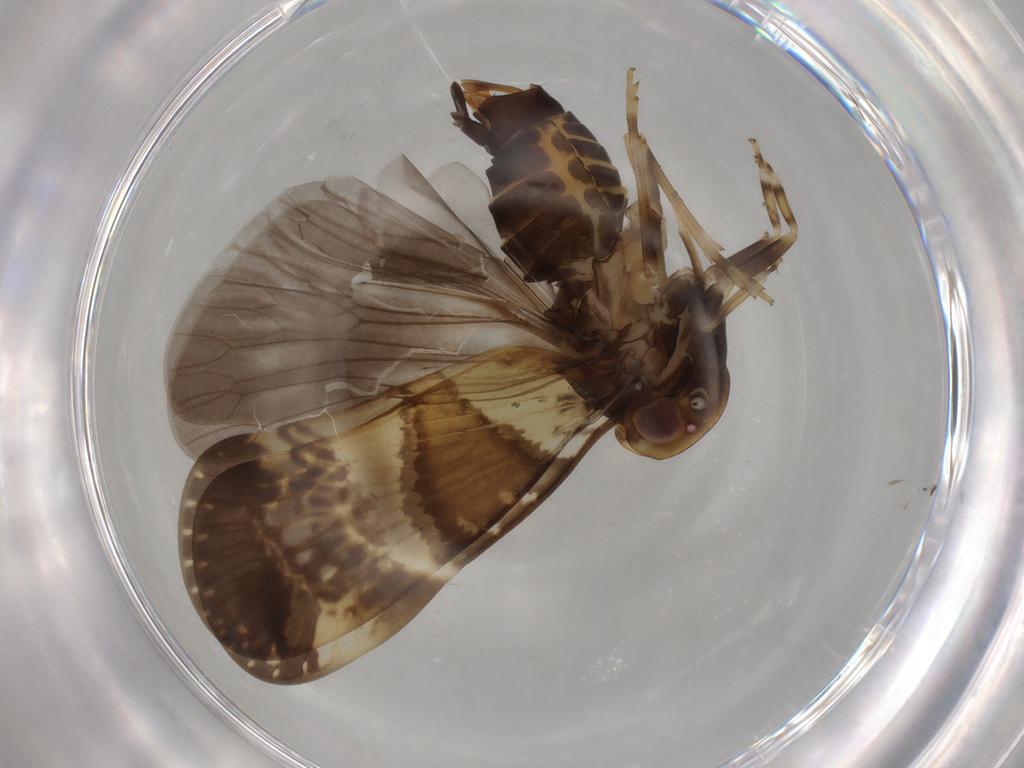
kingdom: Animalia
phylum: Arthropoda
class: Insecta
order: Hemiptera
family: Cixiidae
